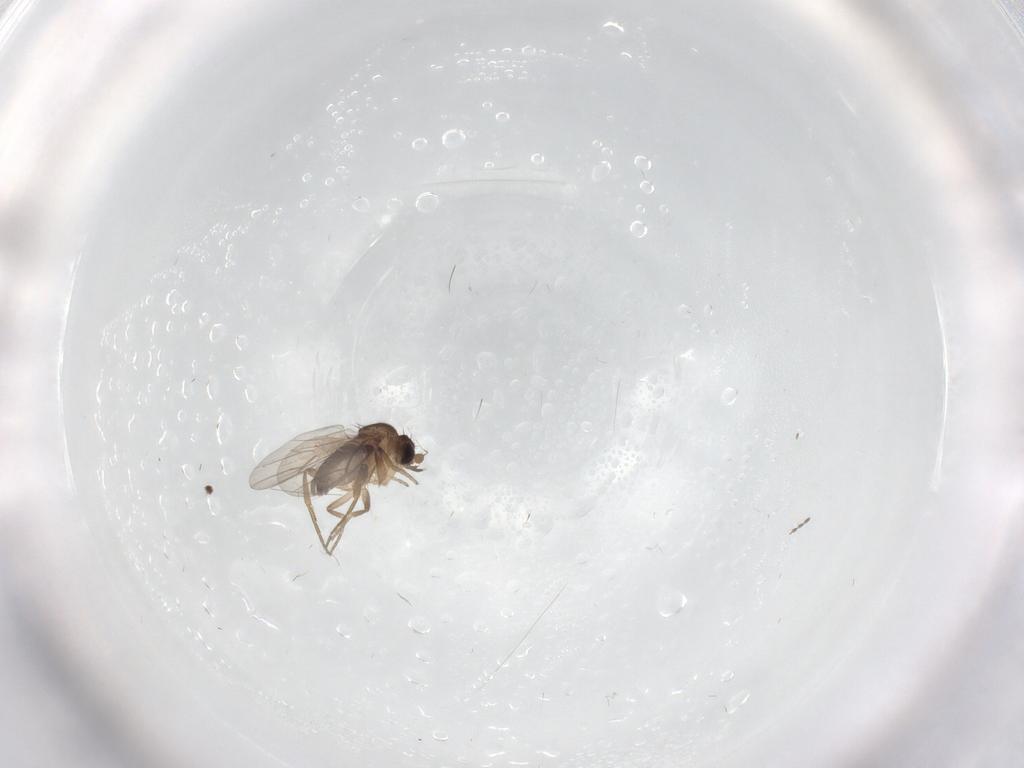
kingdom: Animalia
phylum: Arthropoda
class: Insecta
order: Diptera
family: Phoridae
